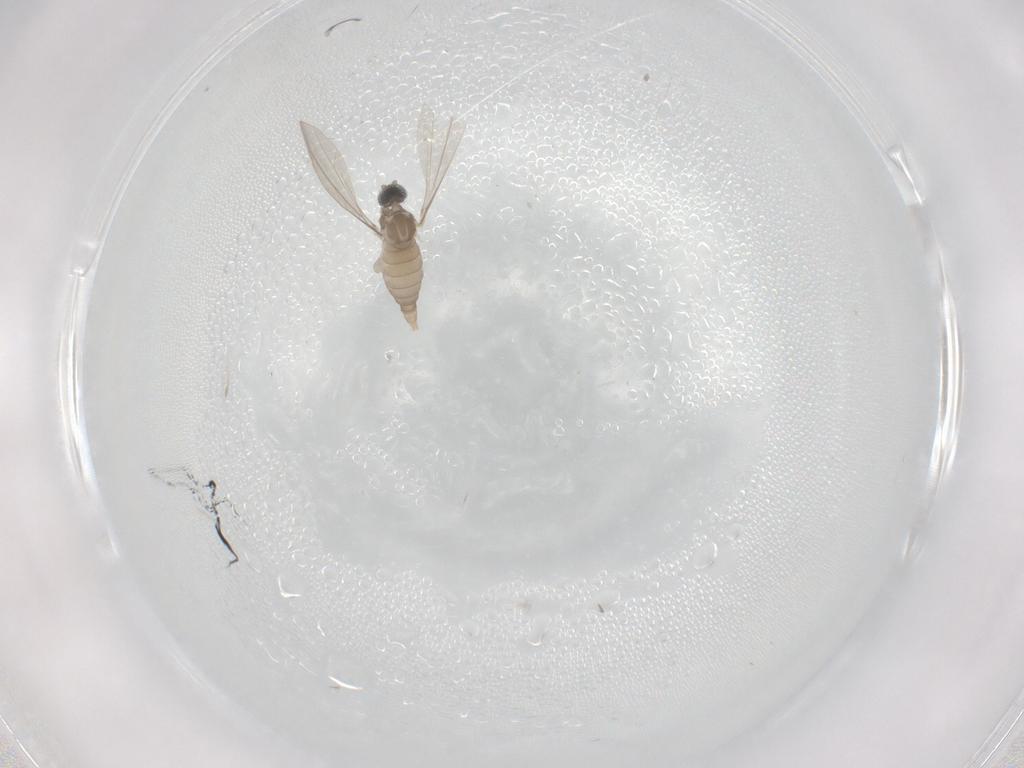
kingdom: Animalia
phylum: Arthropoda
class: Insecta
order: Diptera
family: Cecidomyiidae
